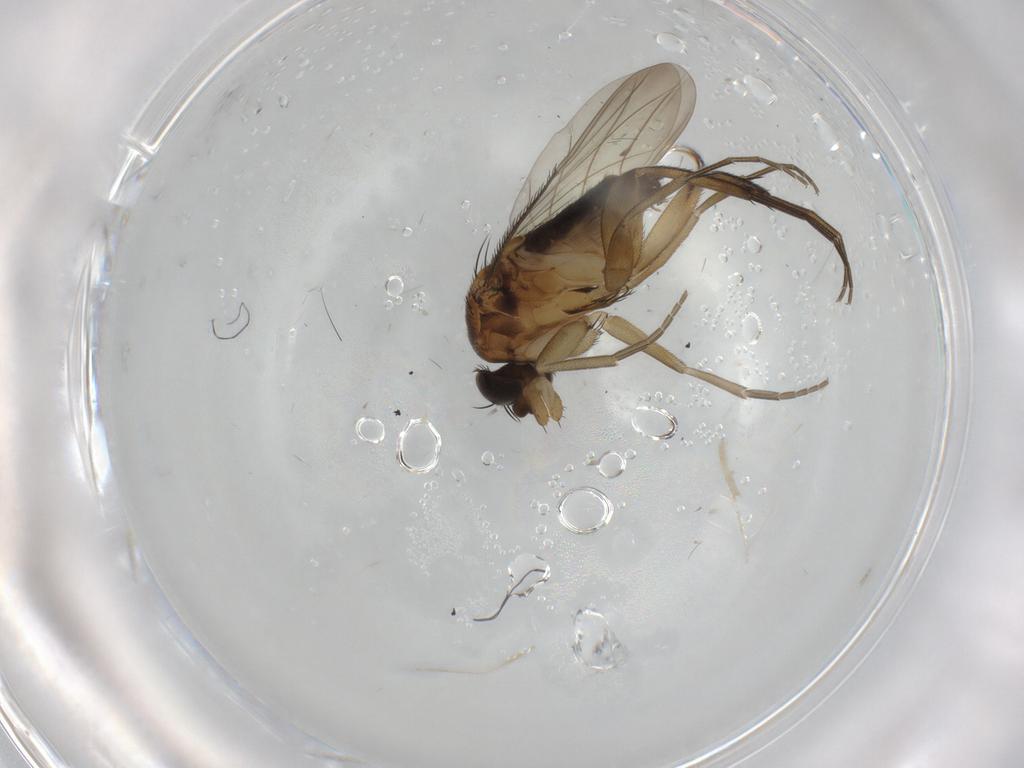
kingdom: Animalia
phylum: Arthropoda
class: Insecta
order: Diptera
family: Phoridae
